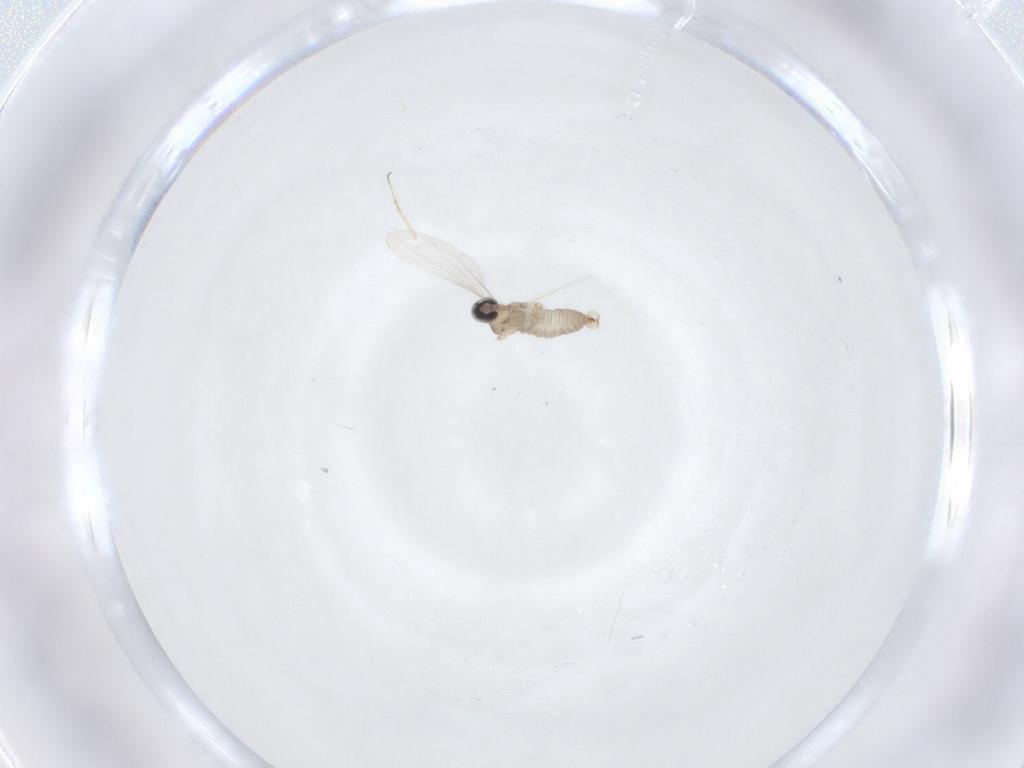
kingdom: Animalia
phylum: Arthropoda
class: Insecta
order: Diptera
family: Cecidomyiidae
